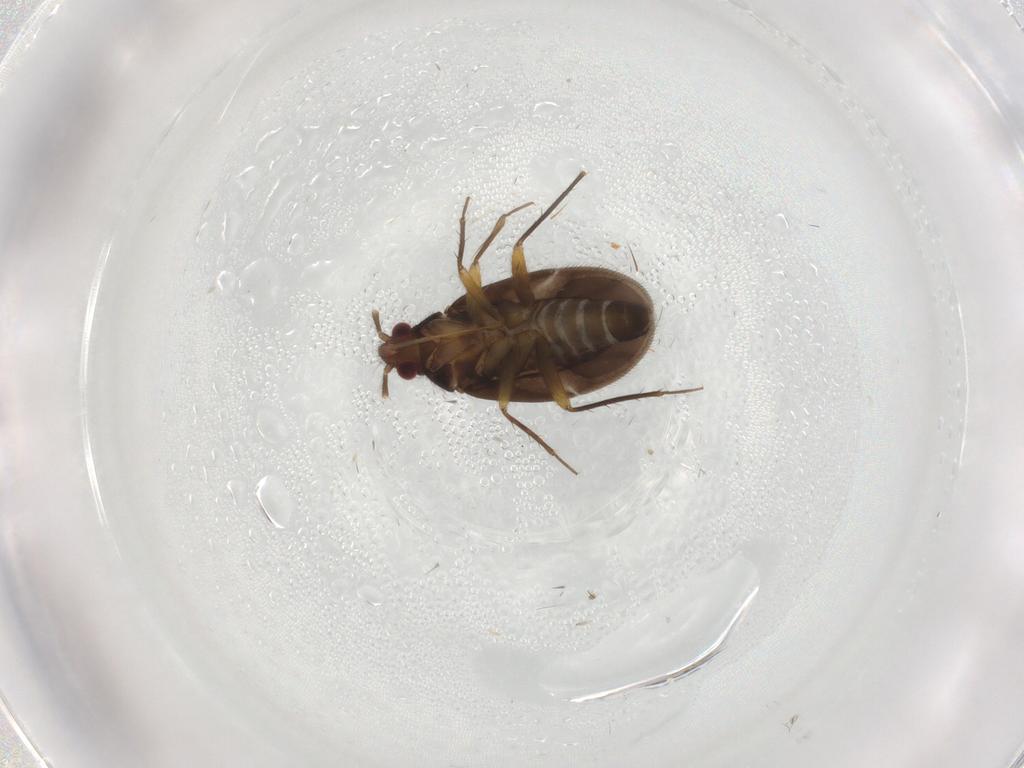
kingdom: Animalia
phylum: Arthropoda
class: Insecta
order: Hemiptera
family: Ceratocombidae
